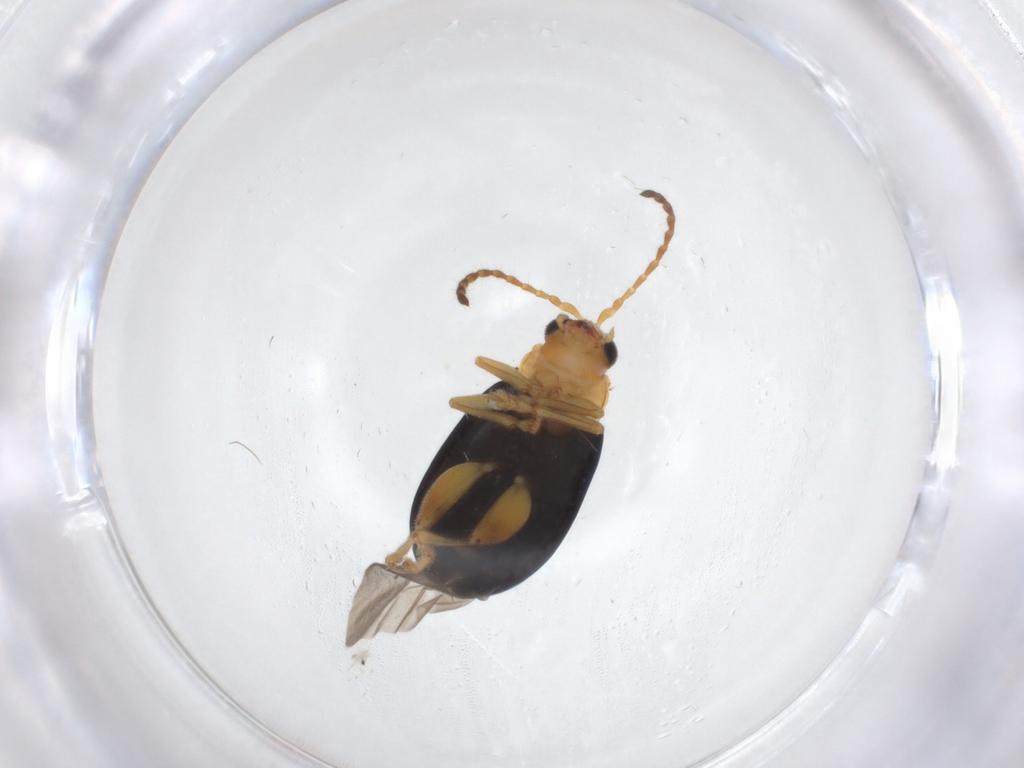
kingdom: Animalia
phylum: Arthropoda
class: Insecta
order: Coleoptera
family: Chrysomelidae
